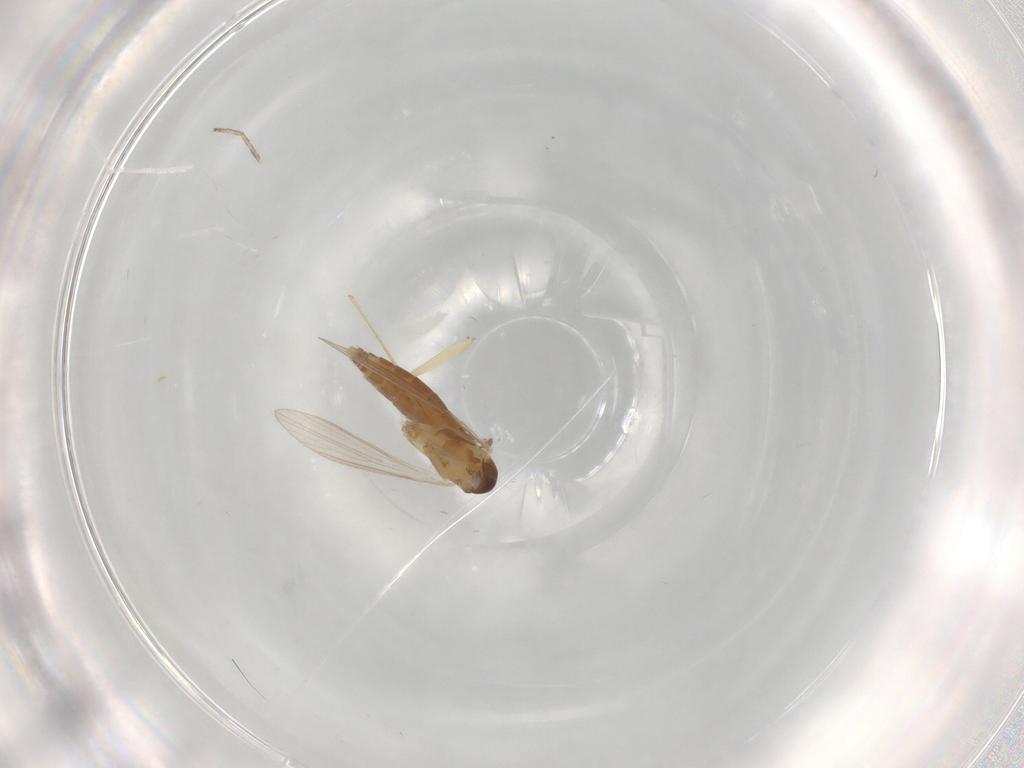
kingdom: Animalia
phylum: Arthropoda
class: Insecta
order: Diptera
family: Psychodidae
